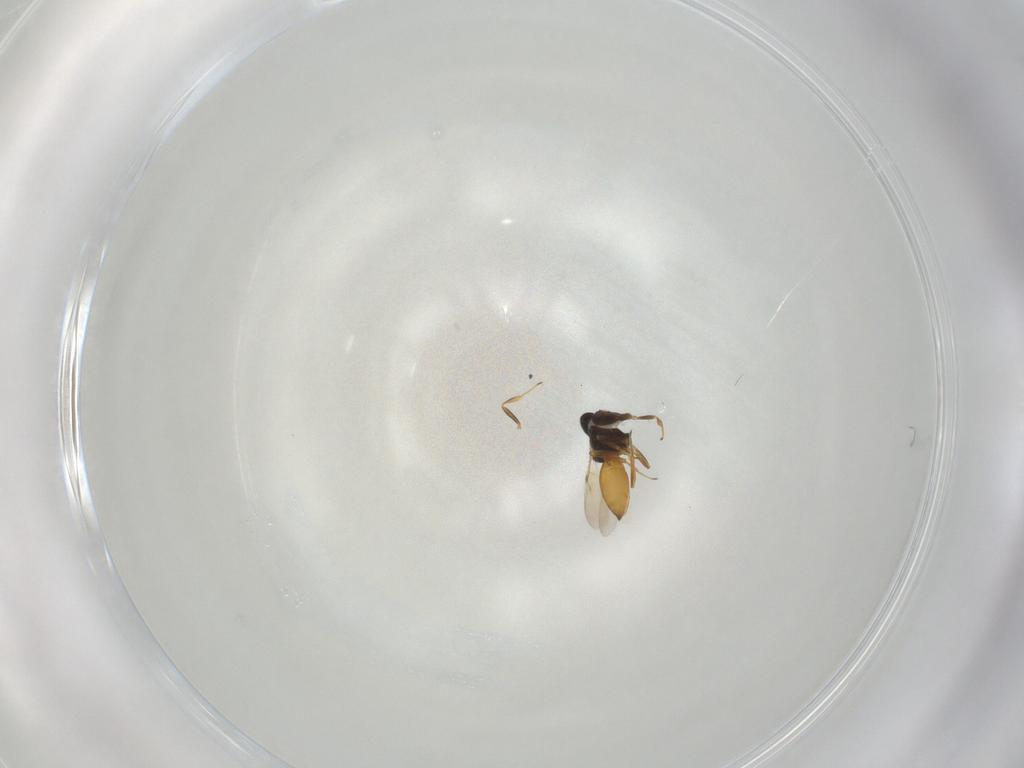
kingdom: Animalia
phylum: Arthropoda
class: Insecta
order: Hymenoptera
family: Scelionidae
